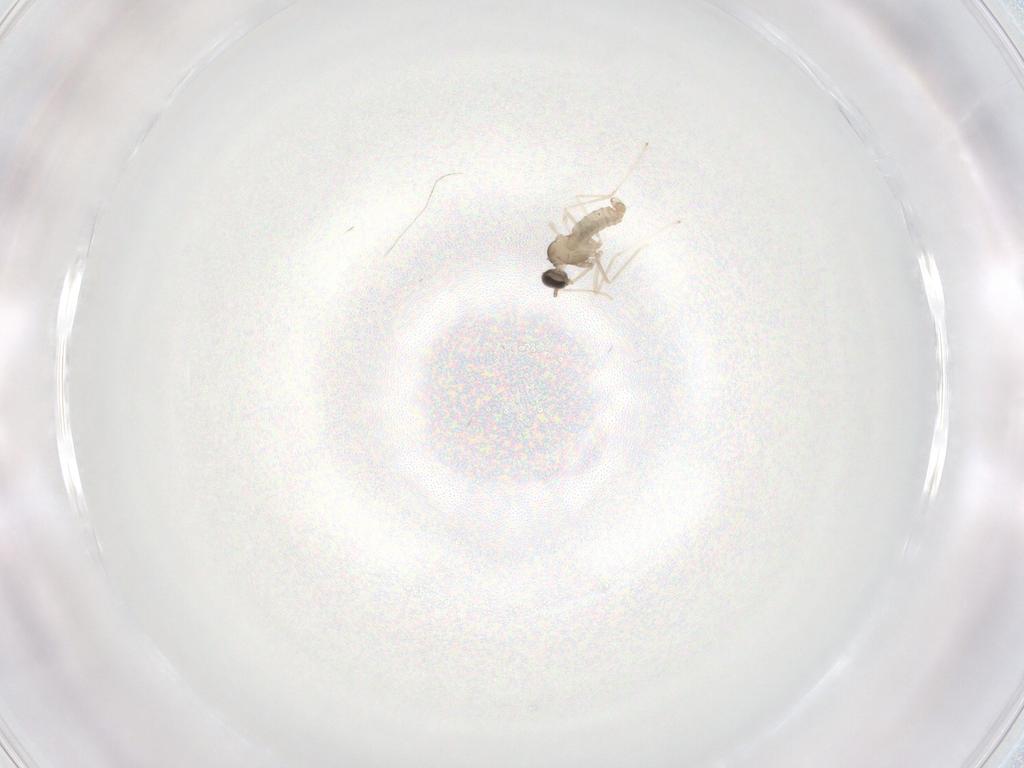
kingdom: Animalia
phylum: Arthropoda
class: Insecta
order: Diptera
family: Cecidomyiidae
